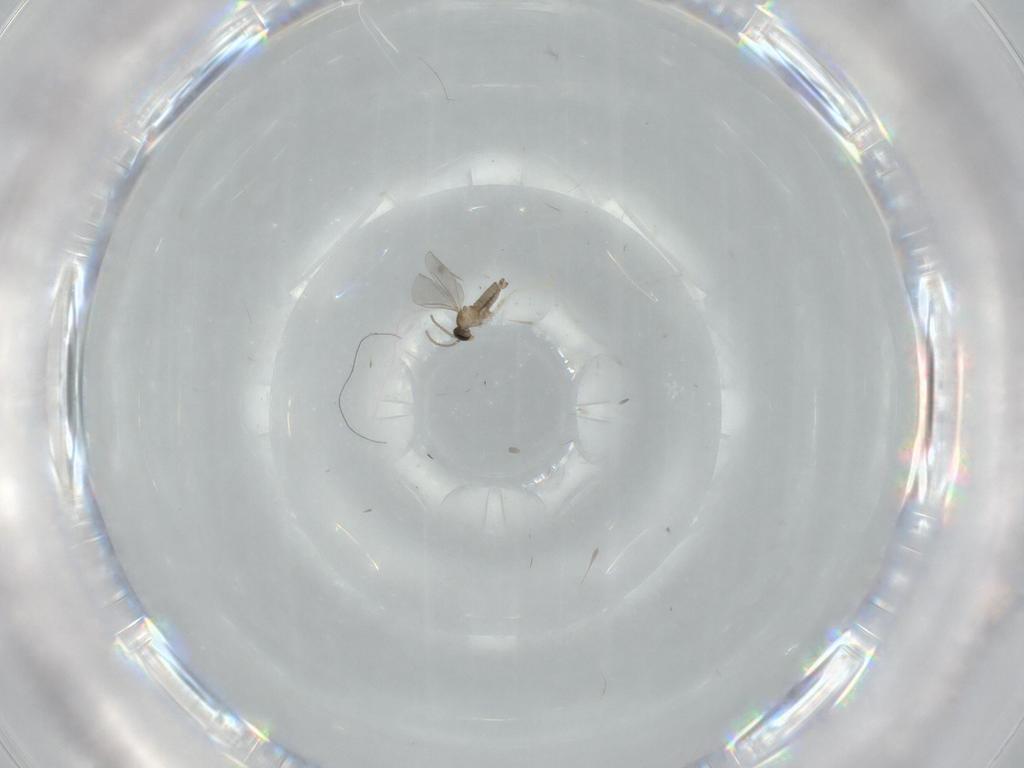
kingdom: Animalia
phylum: Arthropoda
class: Insecta
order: Diptera
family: Cecidomyiidae
